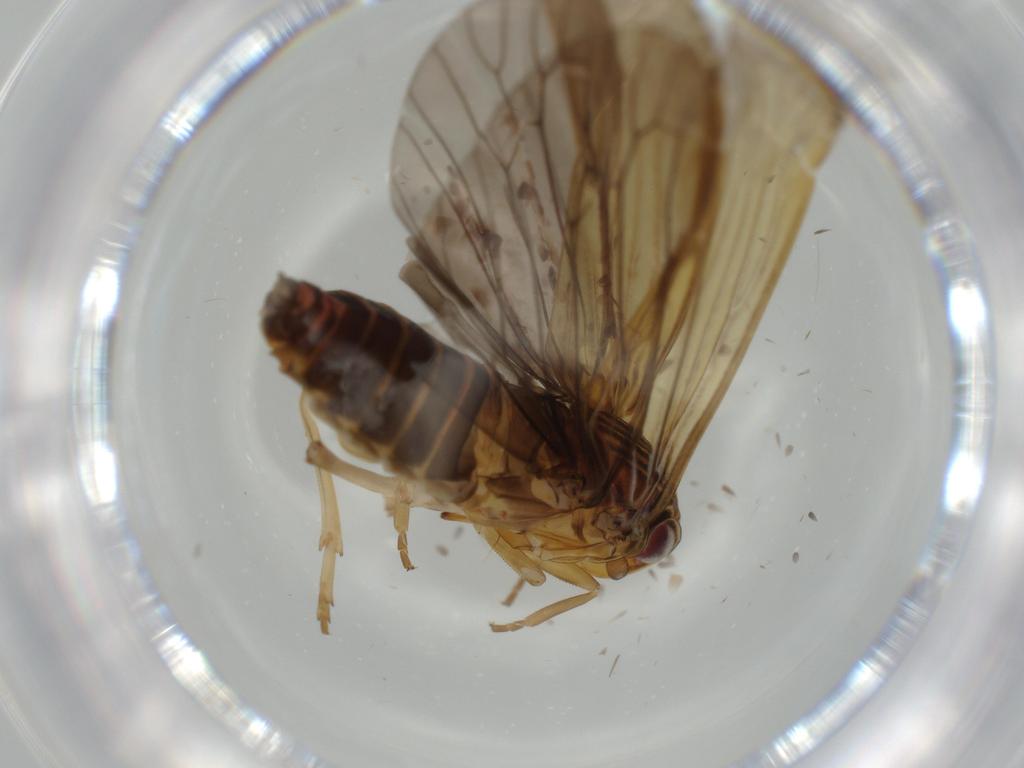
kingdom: Animalia
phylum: Arthropoda
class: Insecta
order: Hemiptera
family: Achilidae
